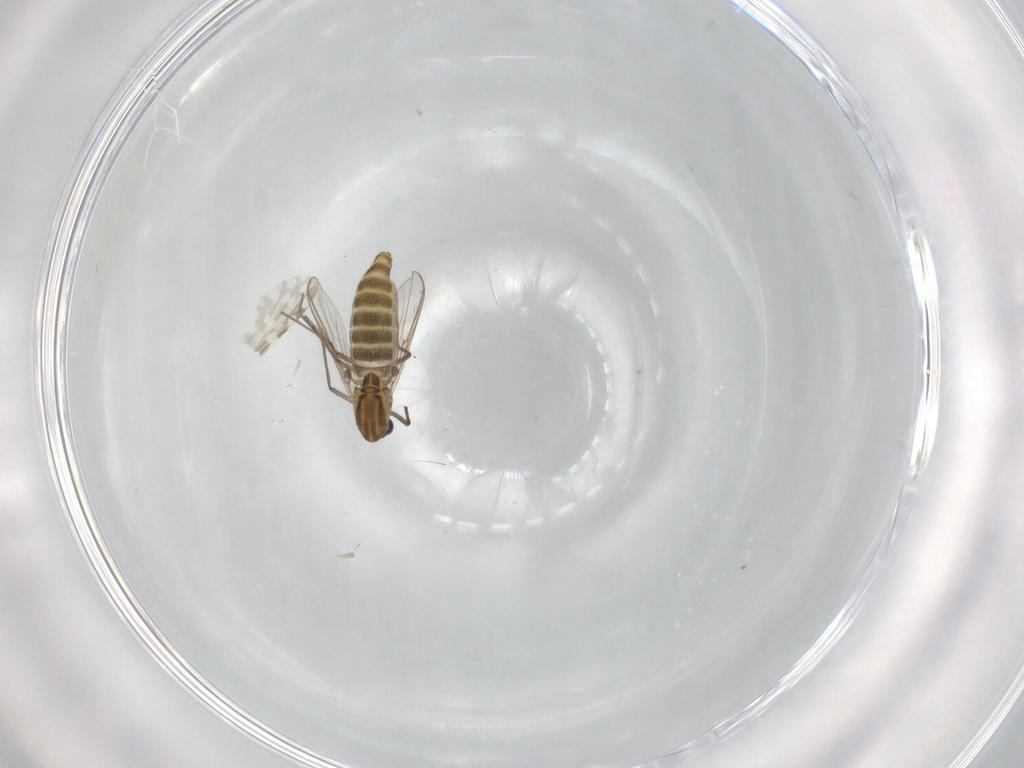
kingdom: Animalia
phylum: Arthropoda
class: Insecta
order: Diptera
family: Chironomidae
